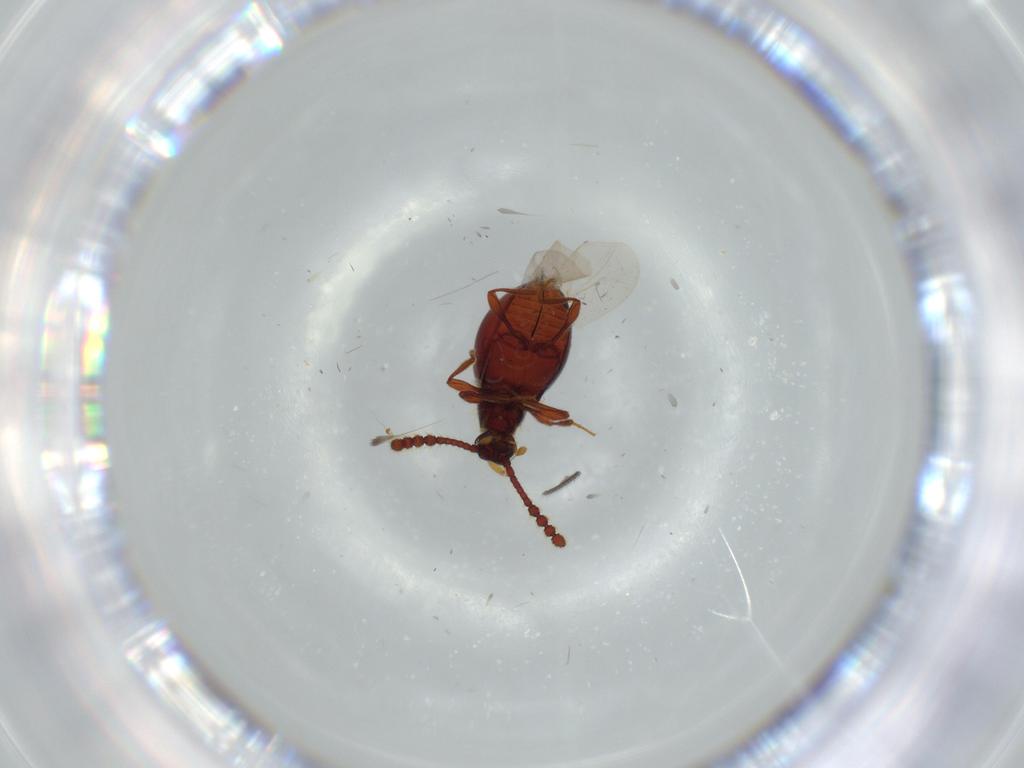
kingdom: Animalia
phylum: Arthropoda
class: Insecta
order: Coleoptera
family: Staphylinidae
